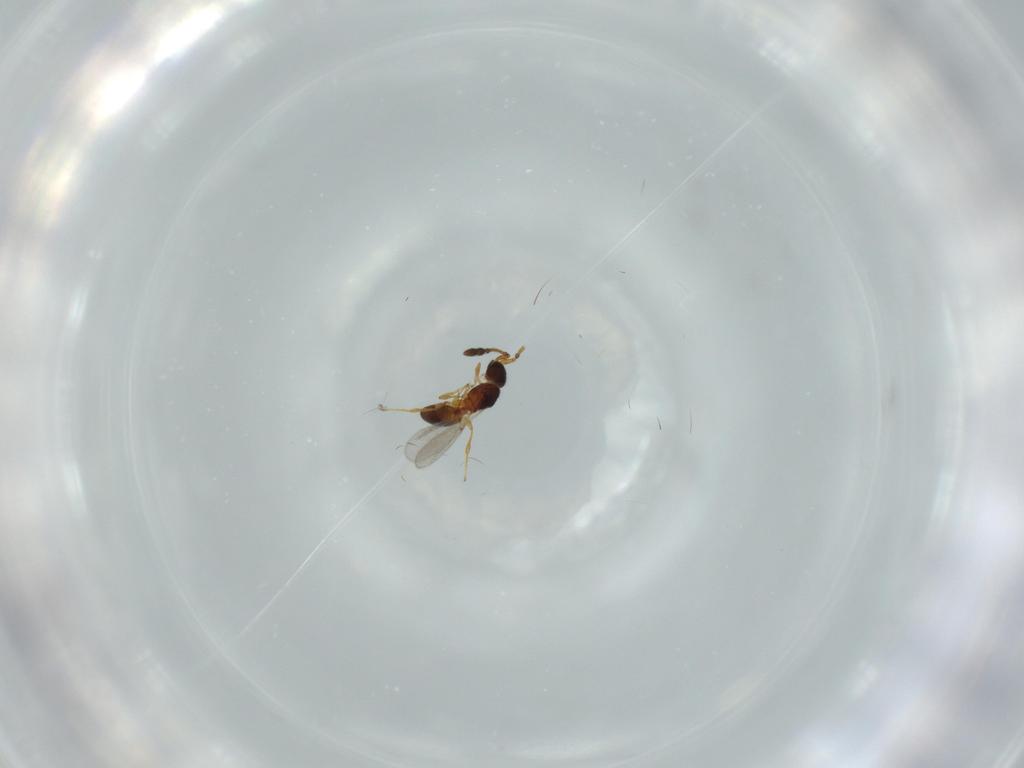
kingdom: Animalia
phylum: Arthropoda
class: Insecta
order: Hymenoptera
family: Diapriidae
